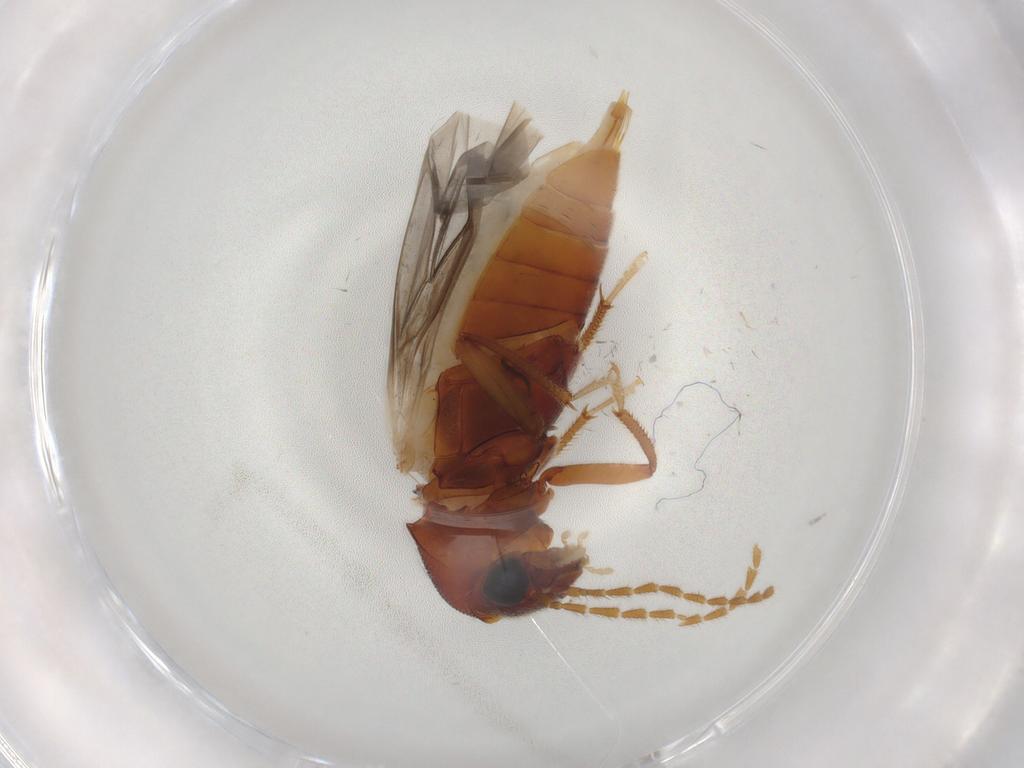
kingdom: Animalia
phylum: Arthropoda
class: Insecta
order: Coleoptera
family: Ptilodactylidae
